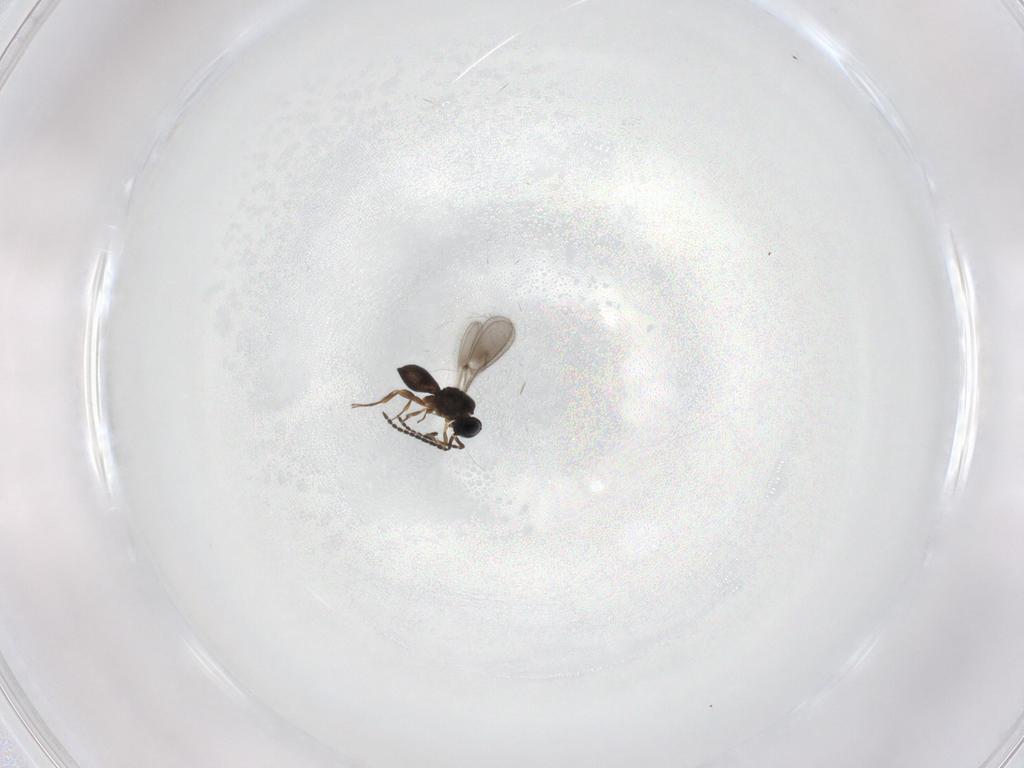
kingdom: Animalia
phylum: Arthropoda
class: Insecta
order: Hymenoptera
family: Scelionidae
